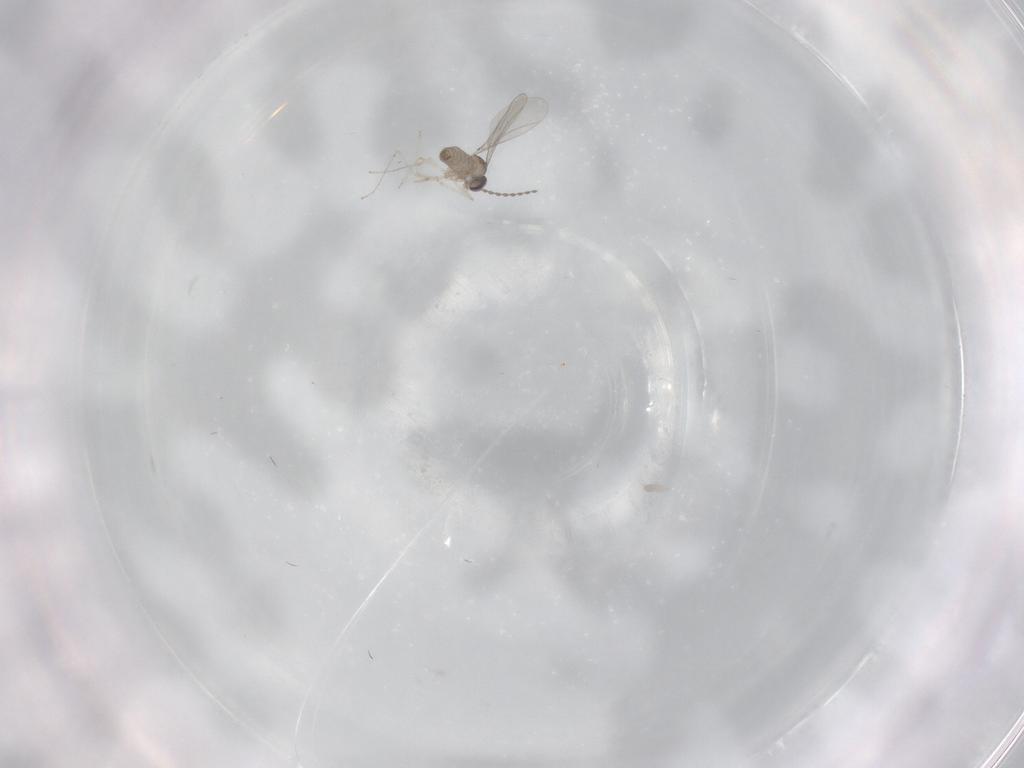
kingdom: Animalia
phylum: Arthropoda
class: Insecta
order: Diptera
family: Cecidomyiidae
